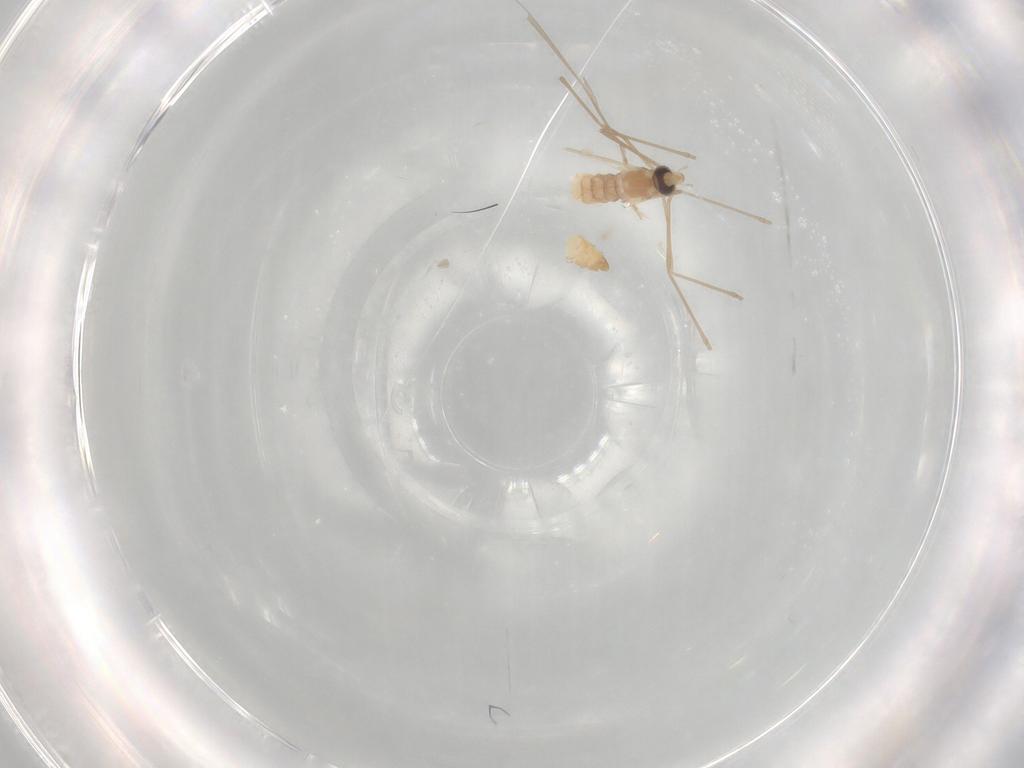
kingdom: Animalia
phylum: Arthropoda
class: Insecta
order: Diptera
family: Cecidomyiidae
